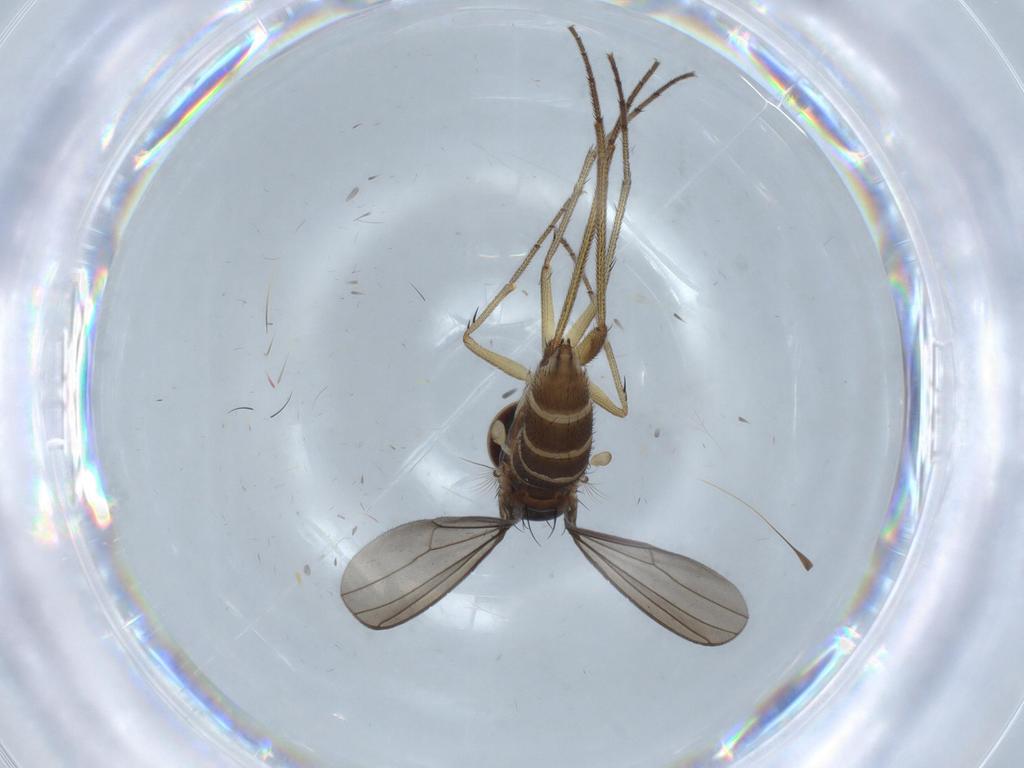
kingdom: Animalia
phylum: Arthropoda
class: Insecta
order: Diptera
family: Dolichopodidae
